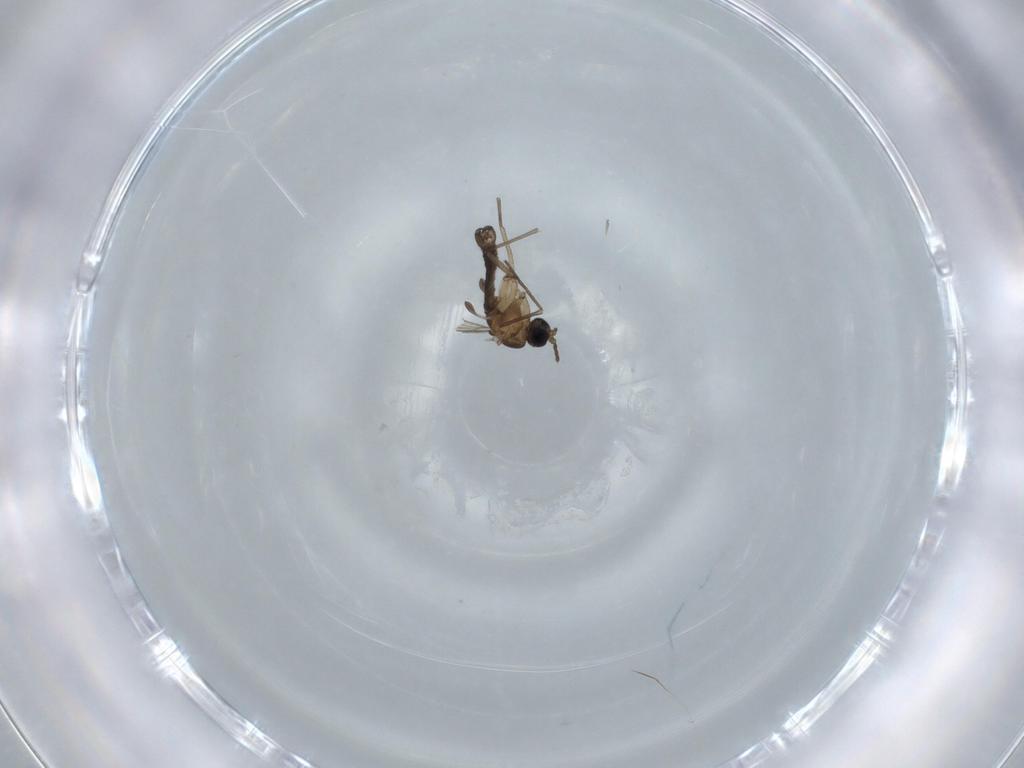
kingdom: Animalia
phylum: Arthropoda
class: Insecta
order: Diptera
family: Sciaridae
